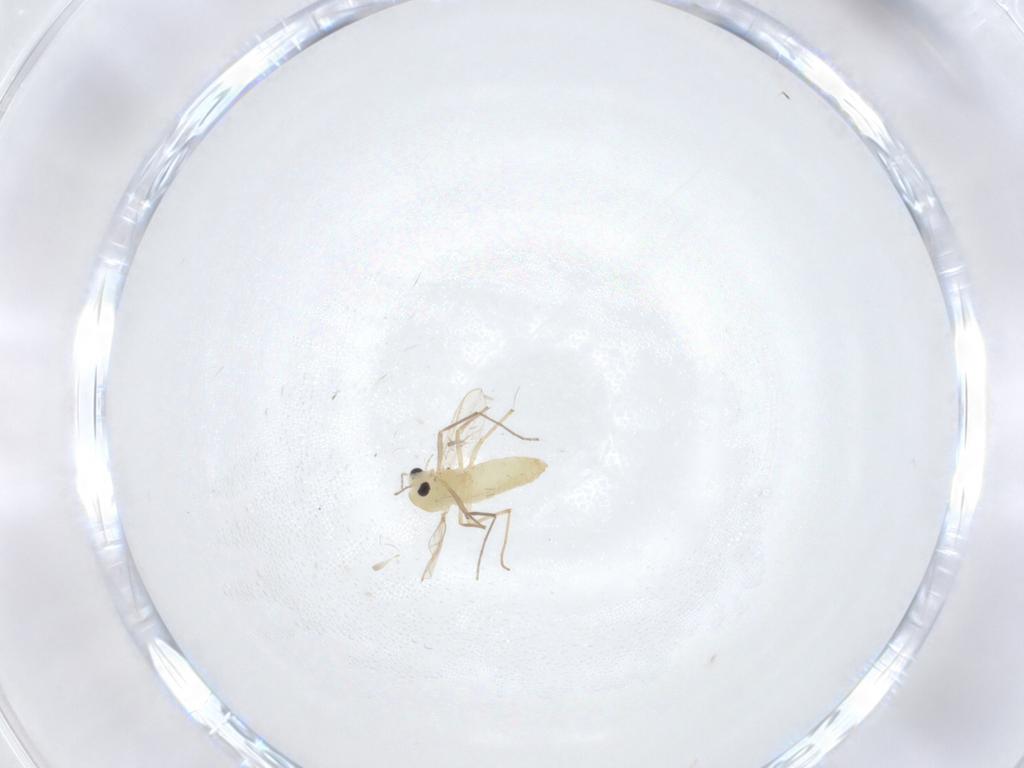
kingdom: Animalia
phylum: Arthropoda
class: Insecta
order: Diptera
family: Chironomidae
